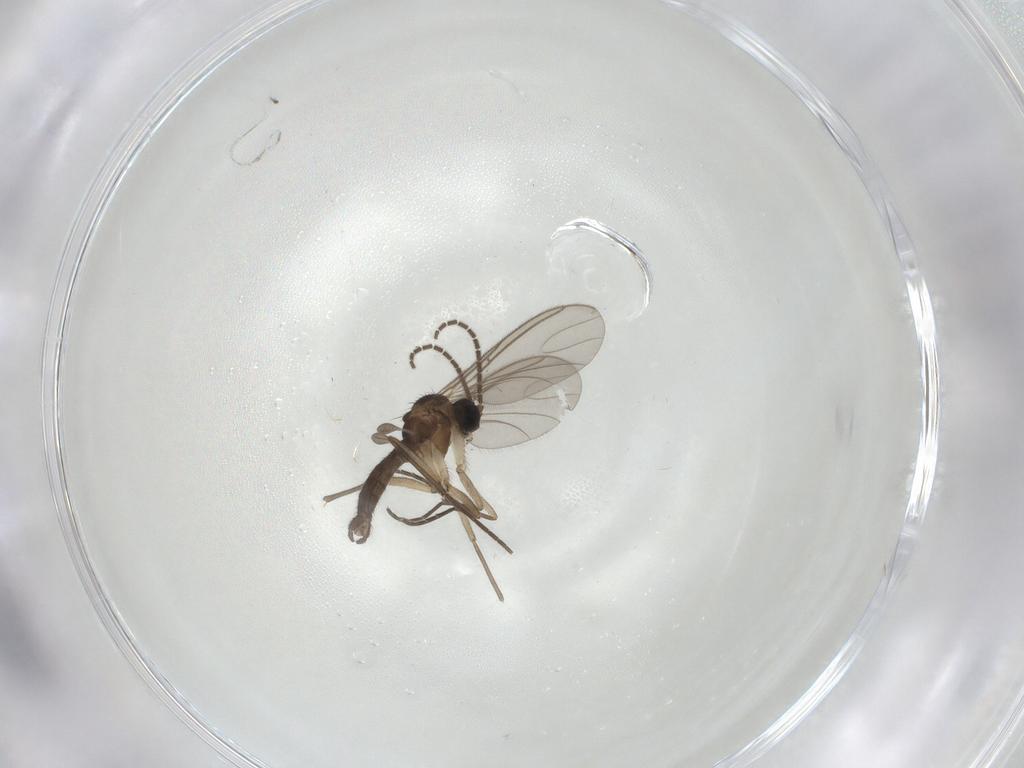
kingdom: Animalia
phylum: Arthropoda
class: Insecta
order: Diptera
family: Sciaridae
